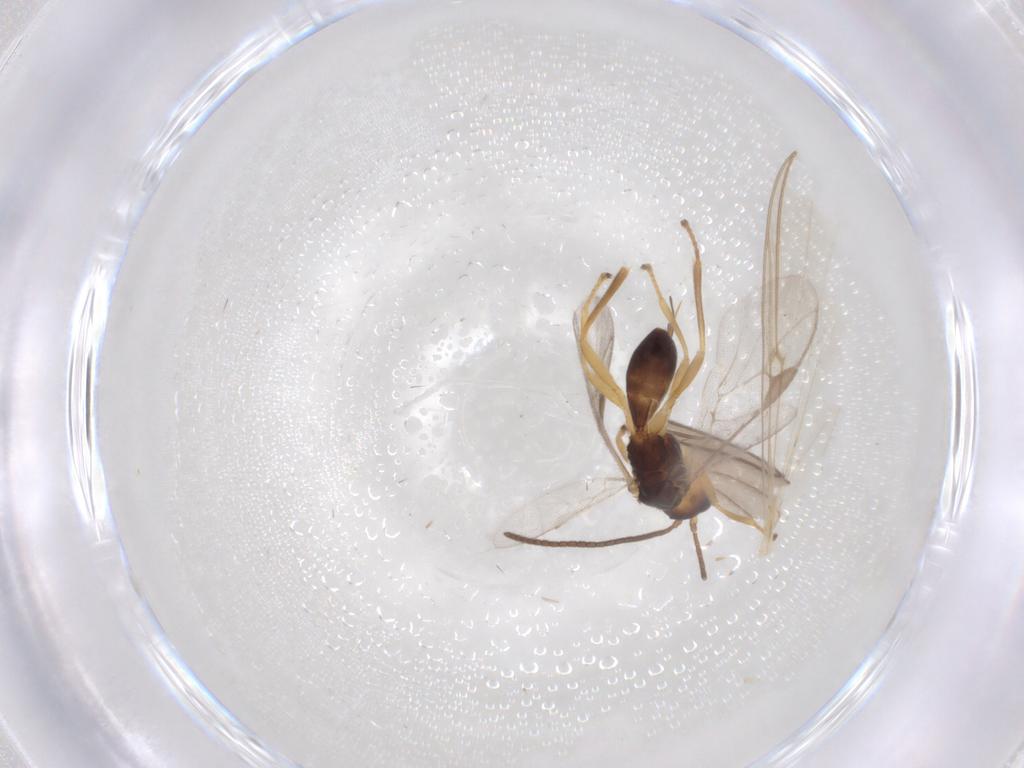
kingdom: Animalia
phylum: Arthropoda
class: Insecta
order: Hymenoptera
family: Braconidae
